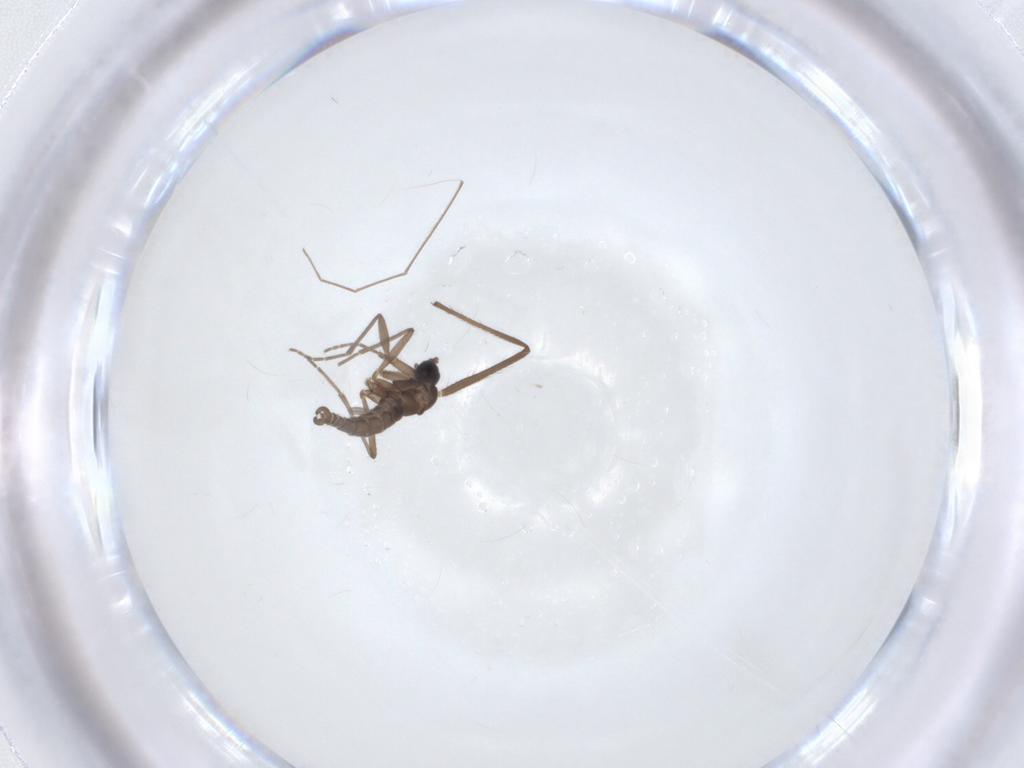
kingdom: Animalia
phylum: Arthropoda
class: Insecta
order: Diptera
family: Sciaridae
